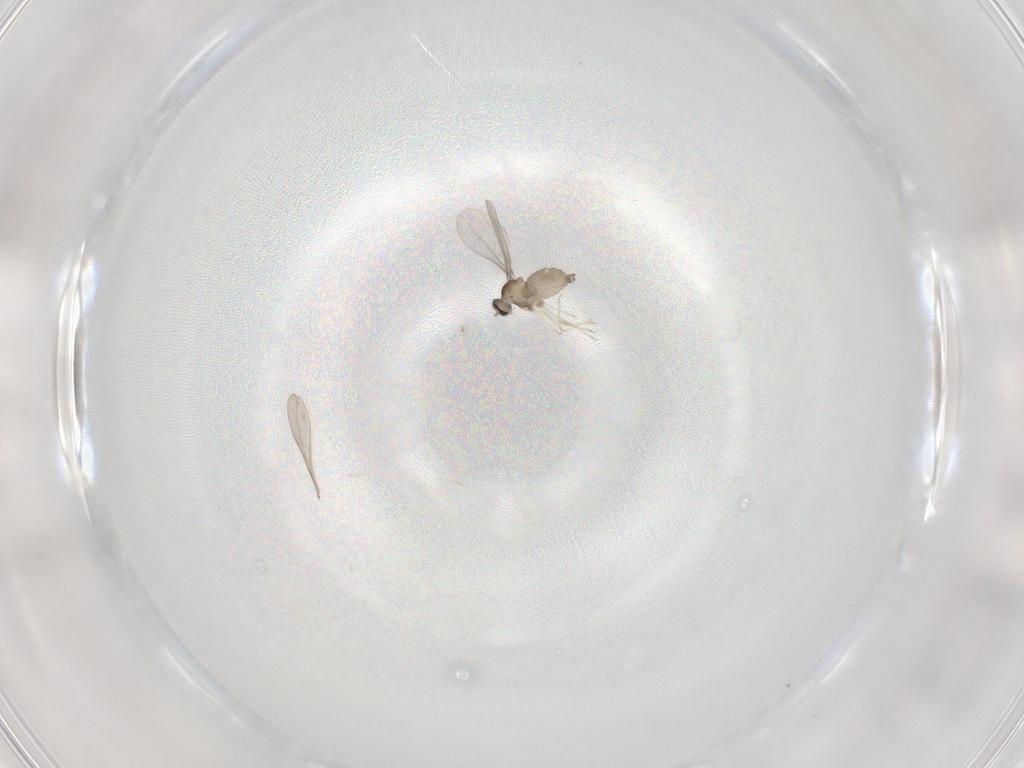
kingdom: Animalia
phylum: Arthropoda
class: Insecta
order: Diptera
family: Cecidomyiidae
